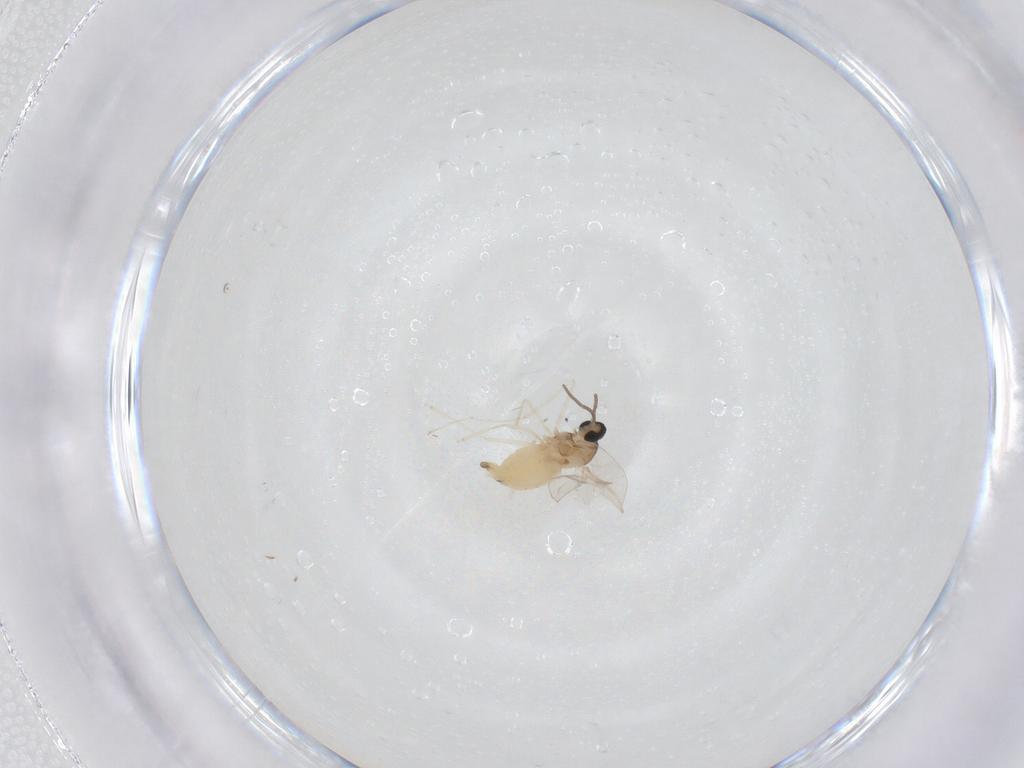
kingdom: Animalia
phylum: Arthropoda
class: Insecta
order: Diptera
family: Cecidomyiidae
